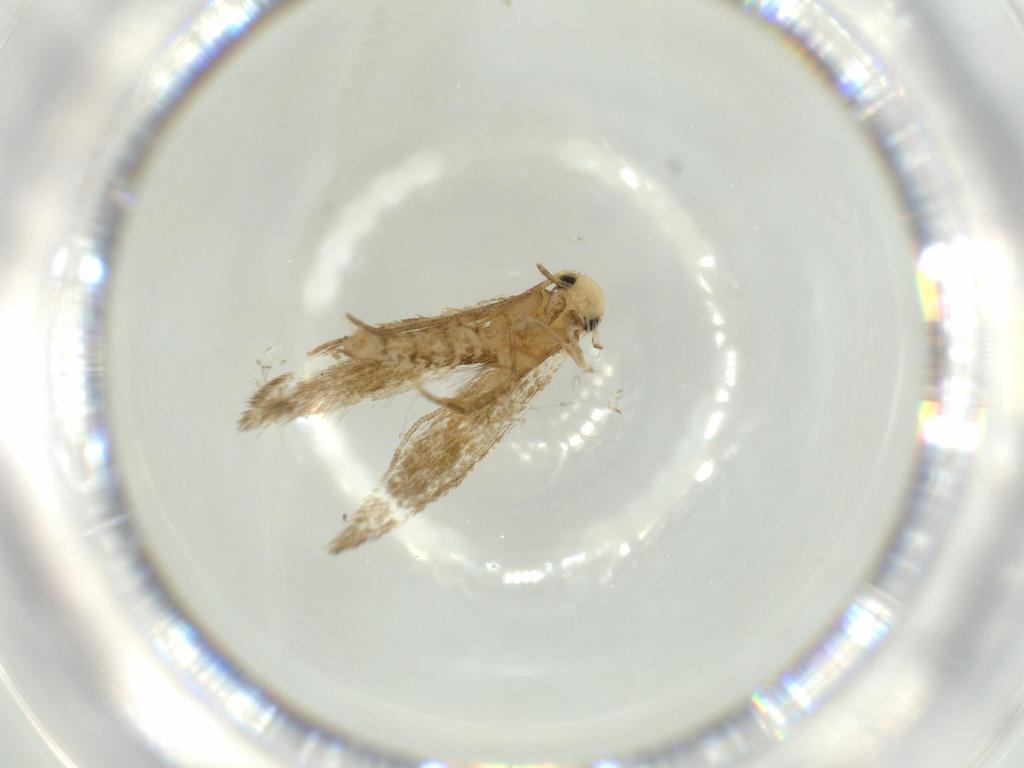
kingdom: Animalia
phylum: Arthropoda
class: Insecta
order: Lepidoptera
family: Tineidae
